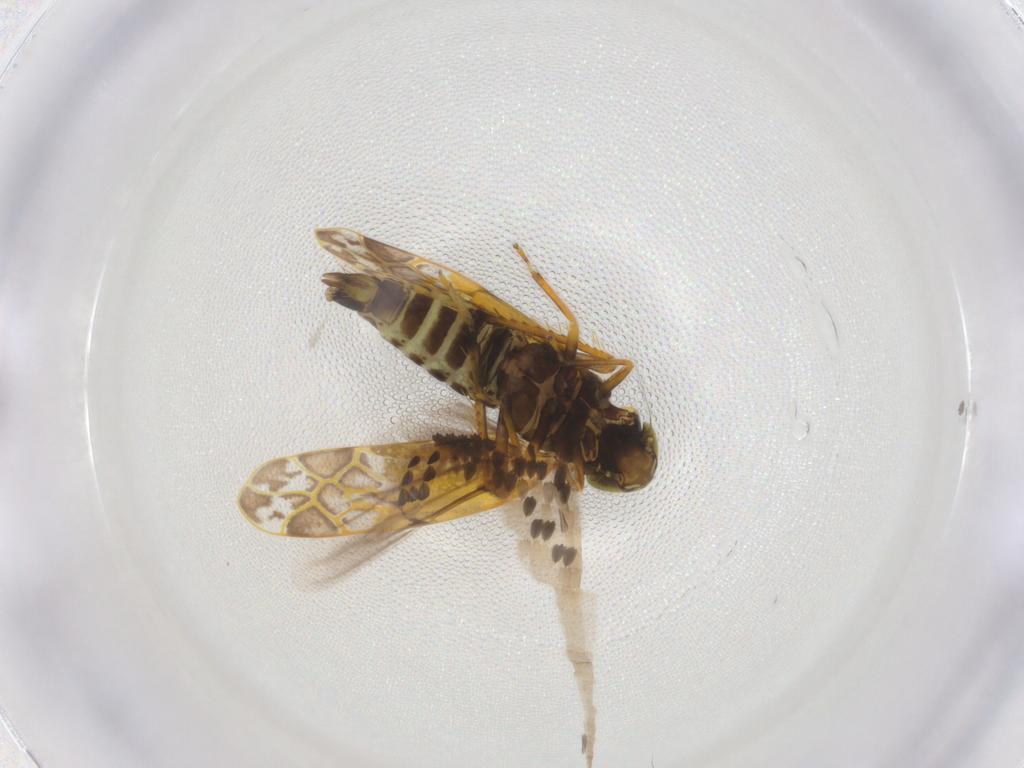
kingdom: Animalia
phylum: Arthropoda
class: Insecta
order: Hemiptera
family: Cicadellidae
